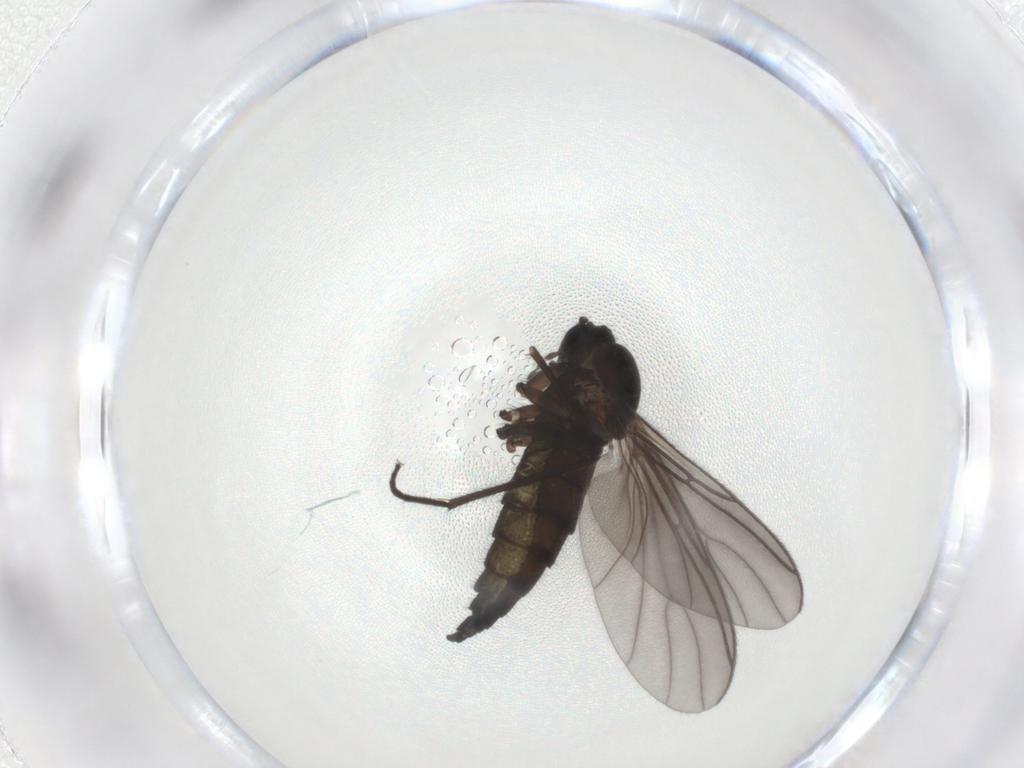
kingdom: Animalia
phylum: Arthropoda
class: Insecta
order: Diptera
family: Sciaridae
